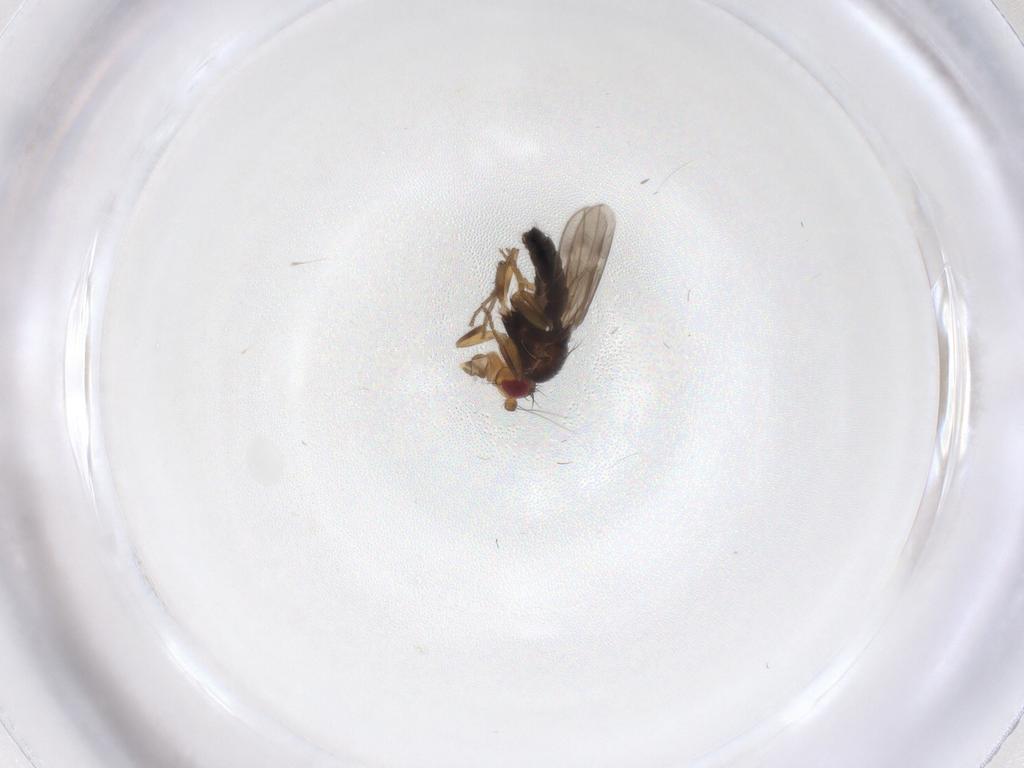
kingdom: Animalia
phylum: Arthropoda
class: Insecta
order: Diptera
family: Sphaeroceridae
